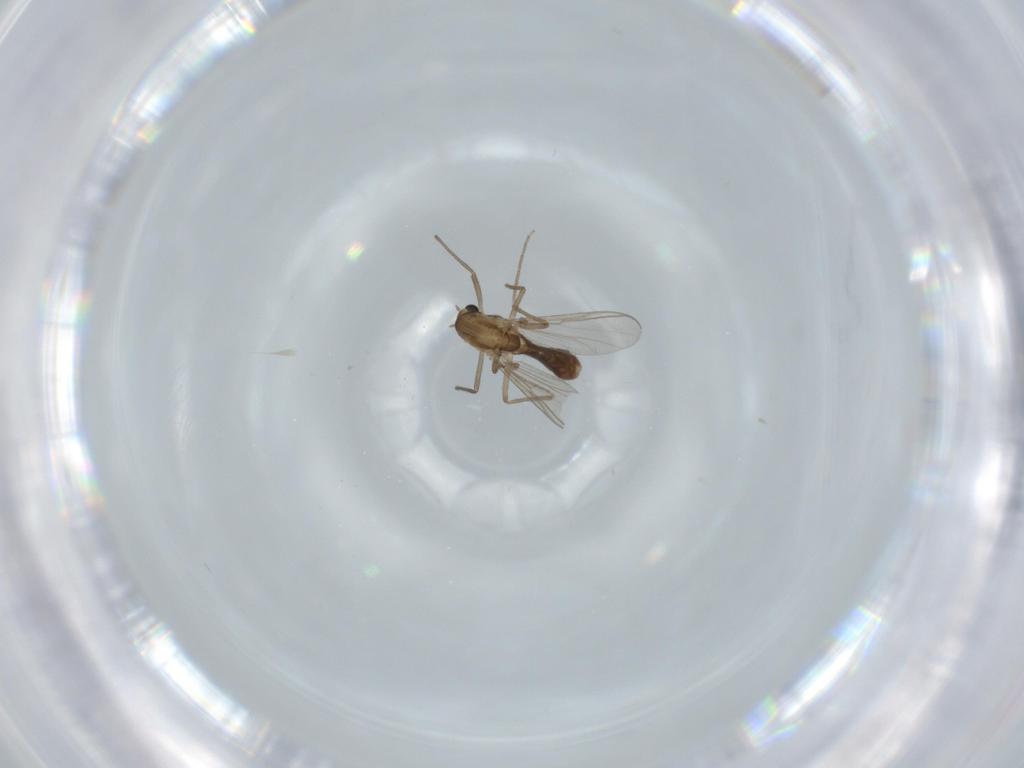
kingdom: Animalia
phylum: Arthropoda
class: Insecta
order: Diptera
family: Chironomidae
